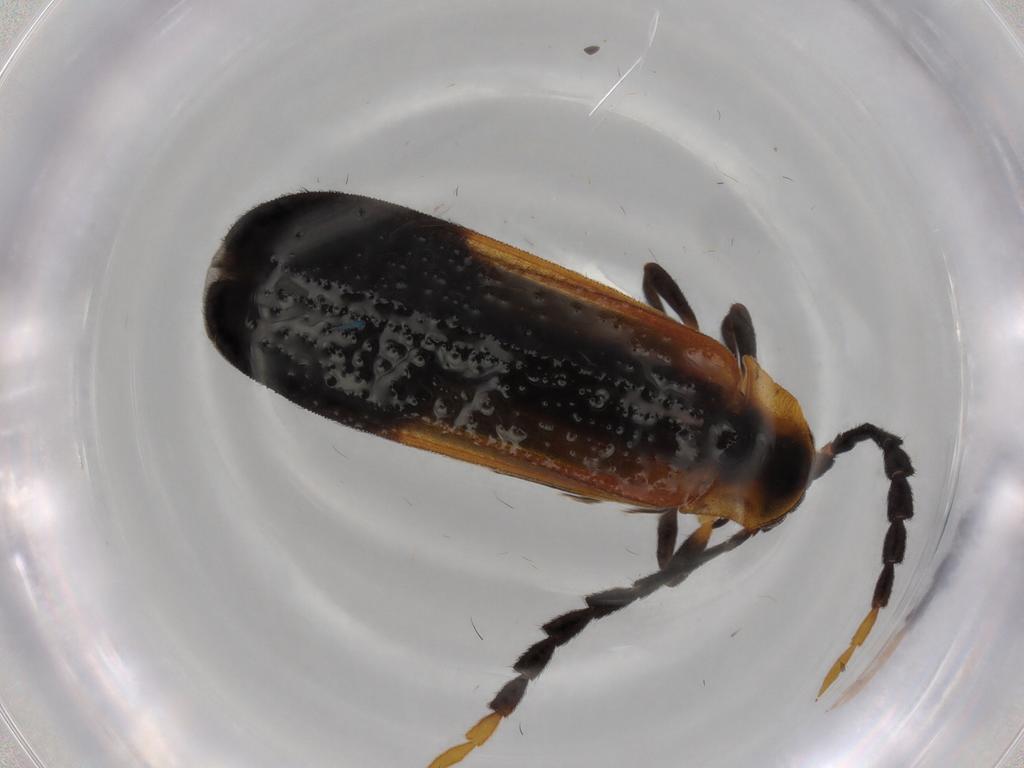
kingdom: Animalia
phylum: Arthropoda
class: Insecta
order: Coleoptera
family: Lycidae
